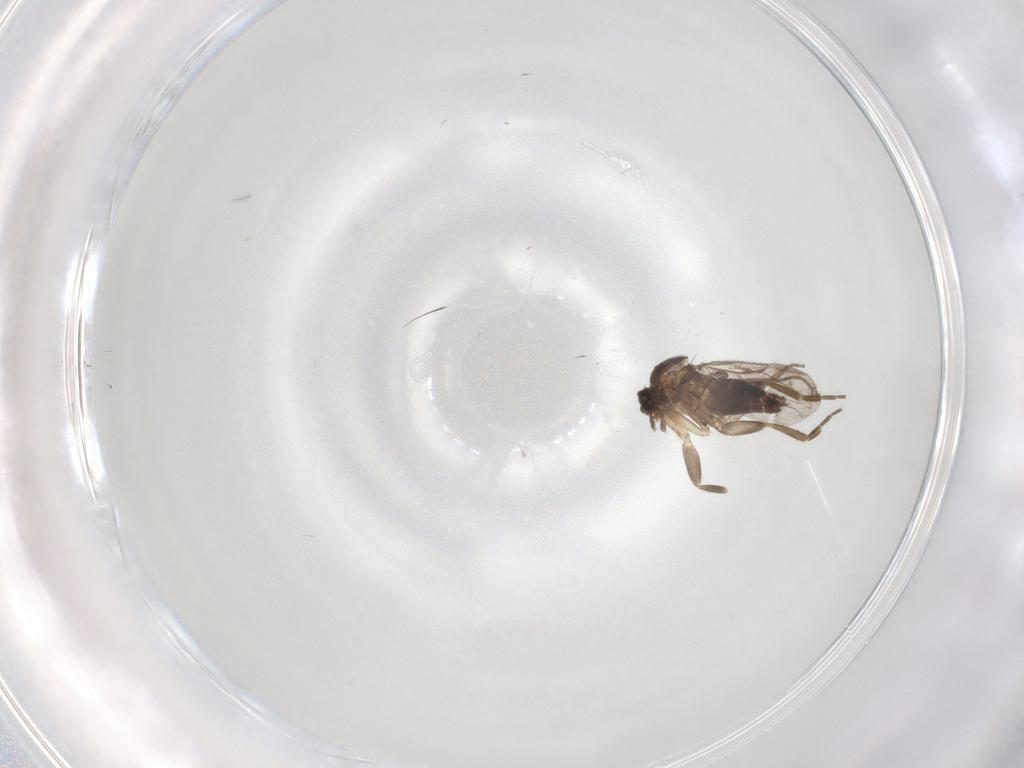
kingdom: Animalia
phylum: Arthropoda
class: Insecta
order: Diptera
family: Phoridae
